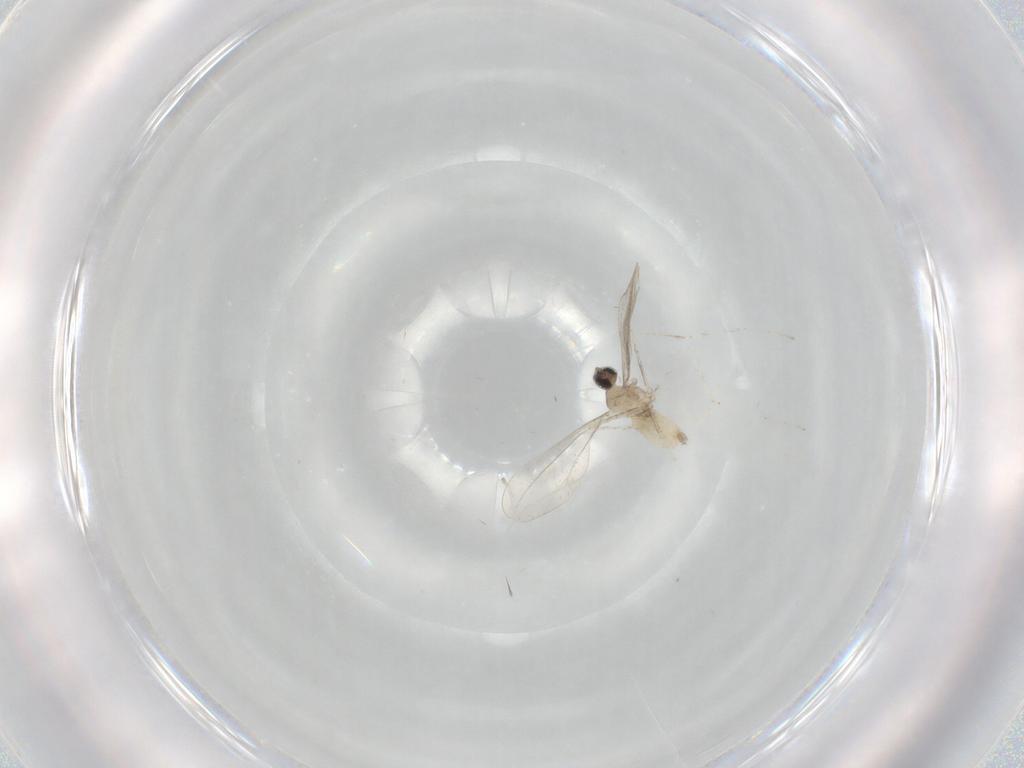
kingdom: Animalia
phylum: Arthropoda
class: Insecta
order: Diptera
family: Cecidomyiidae
